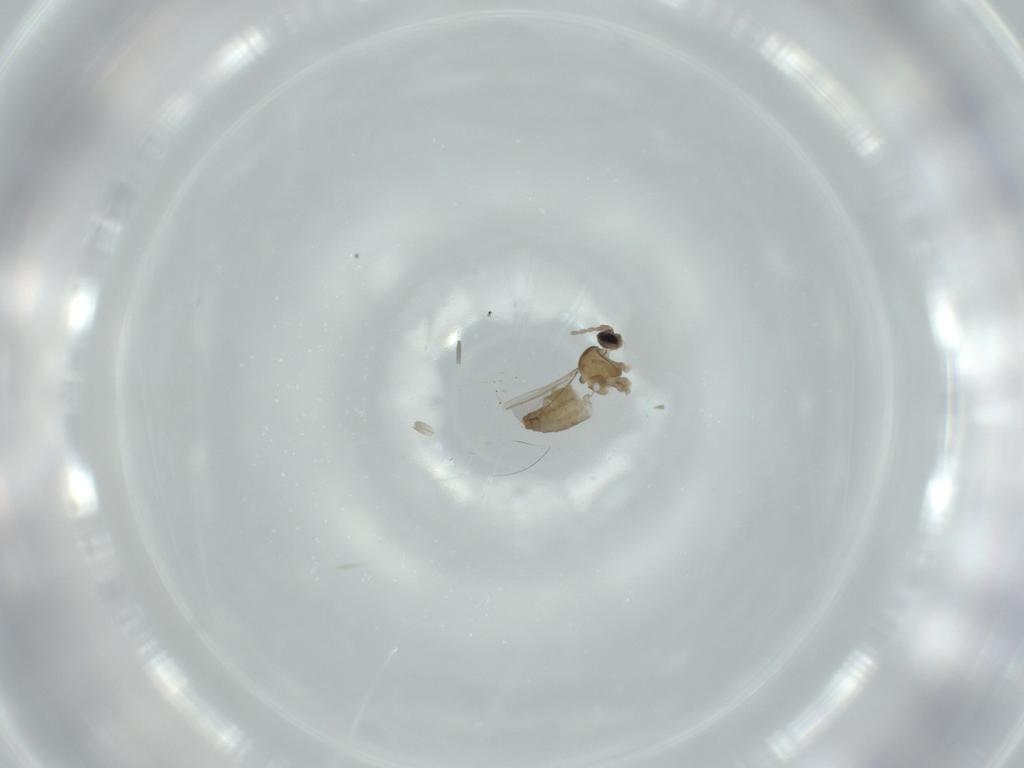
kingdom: Animalia
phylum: Arthropoda
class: Insecta
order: Diptera
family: Cecidomyiidae
